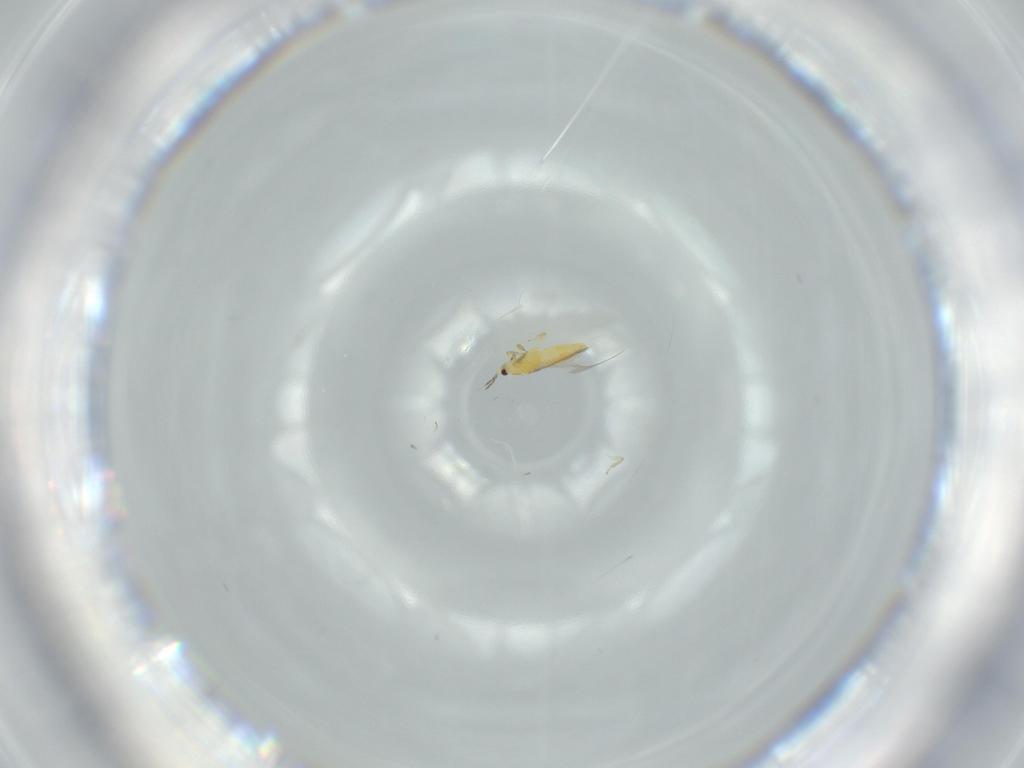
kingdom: Animalia
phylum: Arthropoda
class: Insecta
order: Thysanoptera
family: Thripidae
